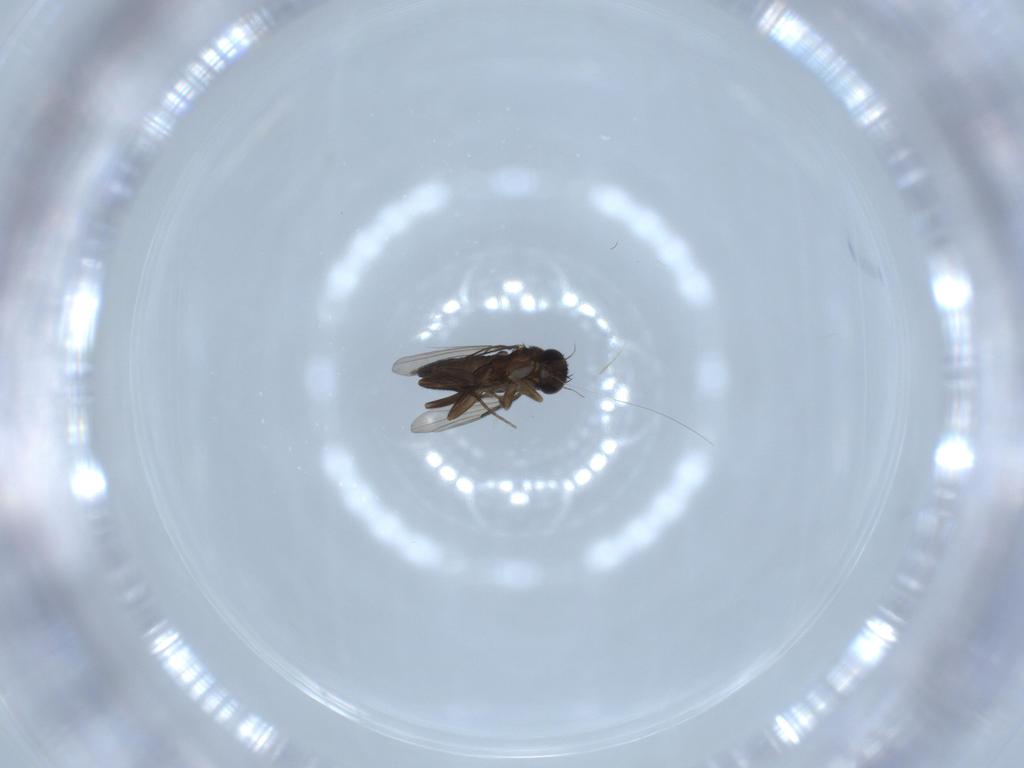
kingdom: Animalia
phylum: Arthropoda
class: Insecta
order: Diptera
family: Phoridae
